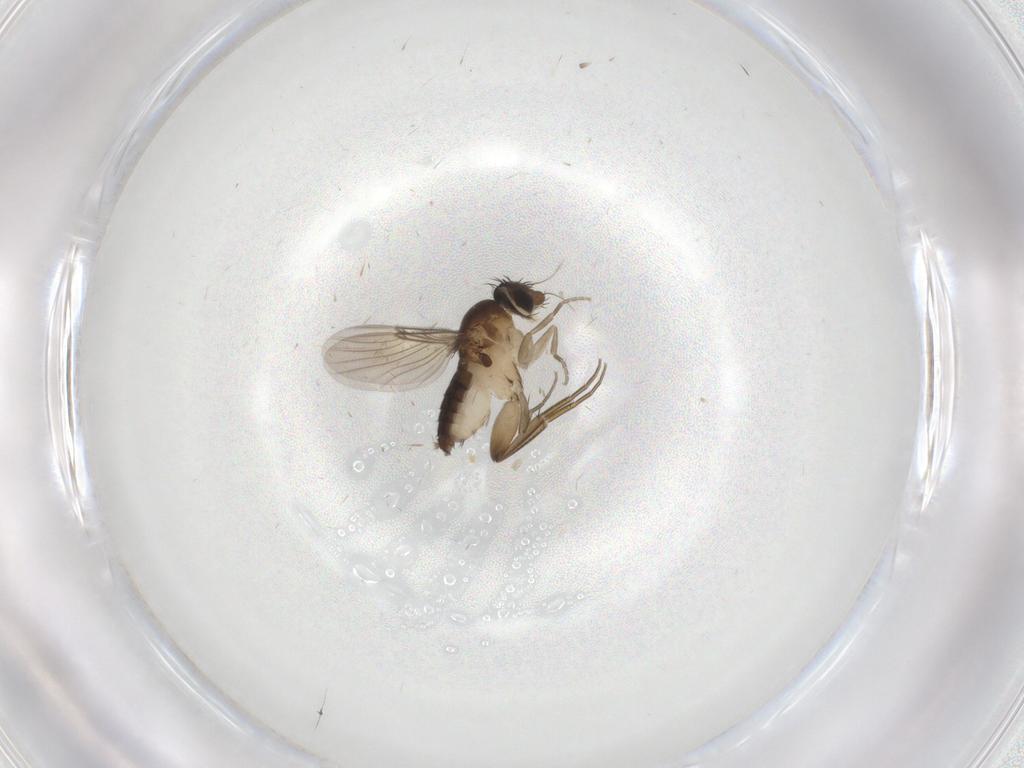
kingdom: Animalia
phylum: Arthropoda
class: Insecta
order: Diptera
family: Phoridae
